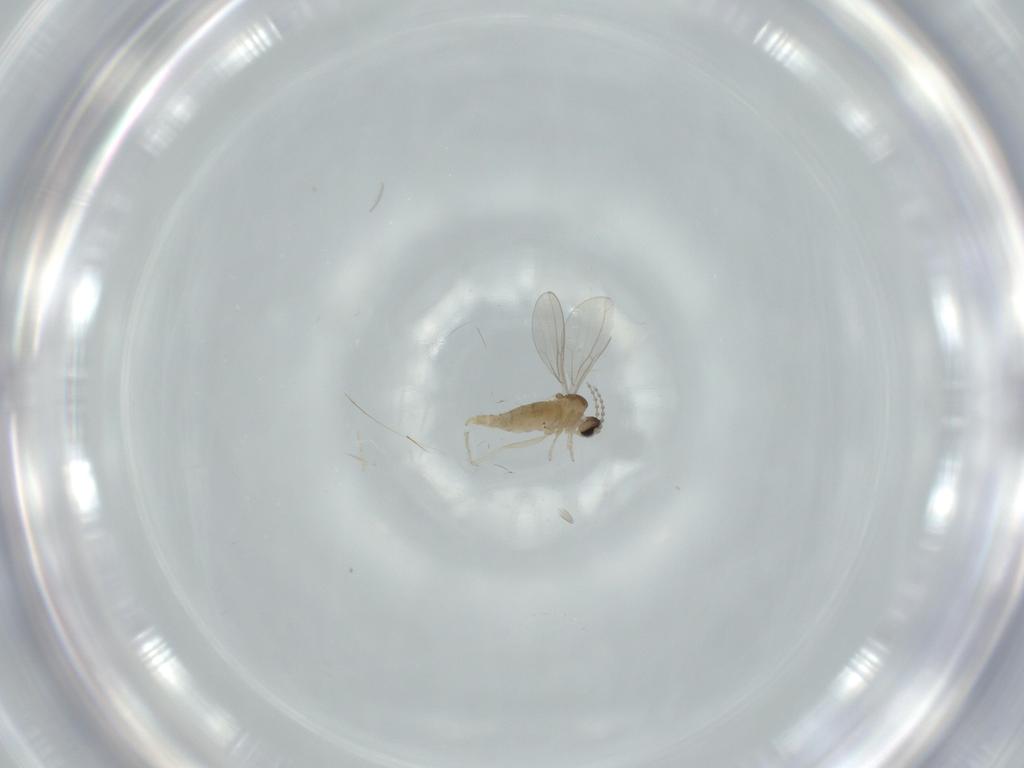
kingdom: Animalia
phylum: Arthropoda
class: Insecta
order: Diptera
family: Cecidomyiidae
